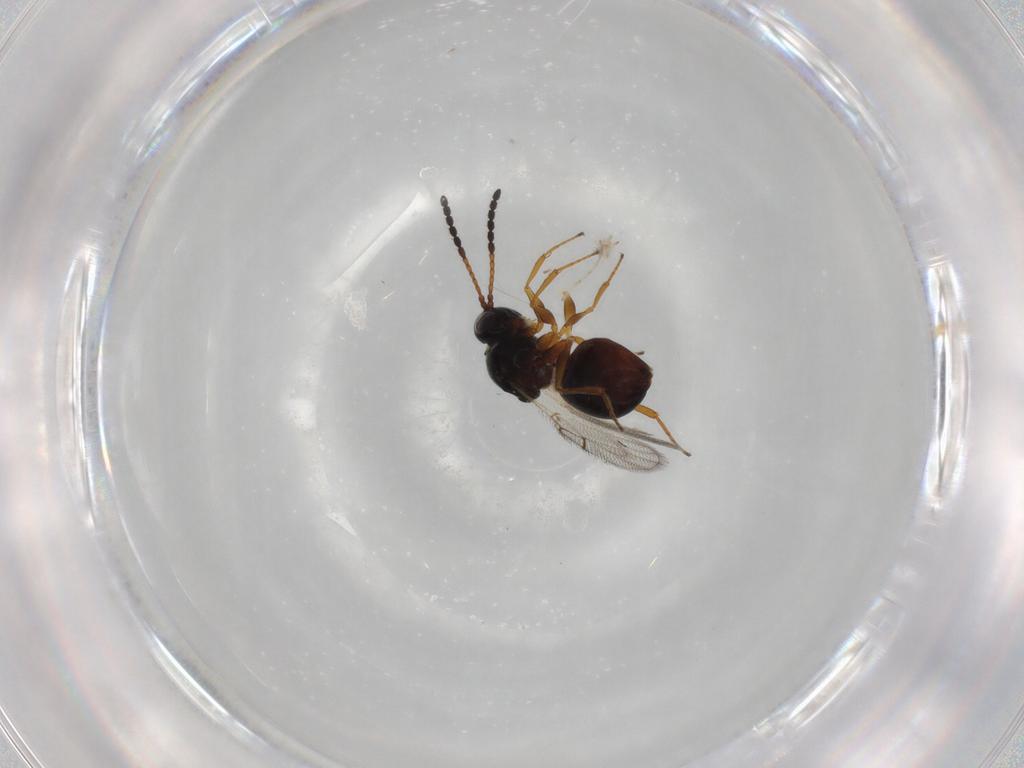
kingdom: Animalia
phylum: Arthropoda
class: Insecta
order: Hymenoptera
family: Figitidae
